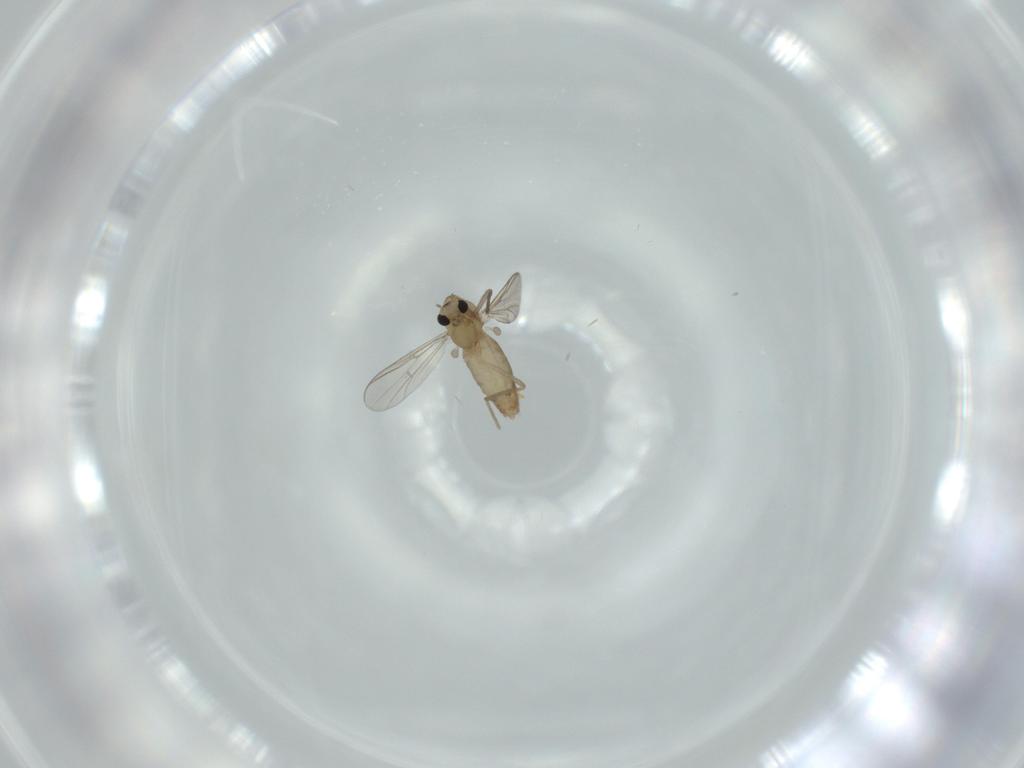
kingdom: Animalia
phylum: Arthropoda
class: Insecta
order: Diptera
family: Chironomidae
